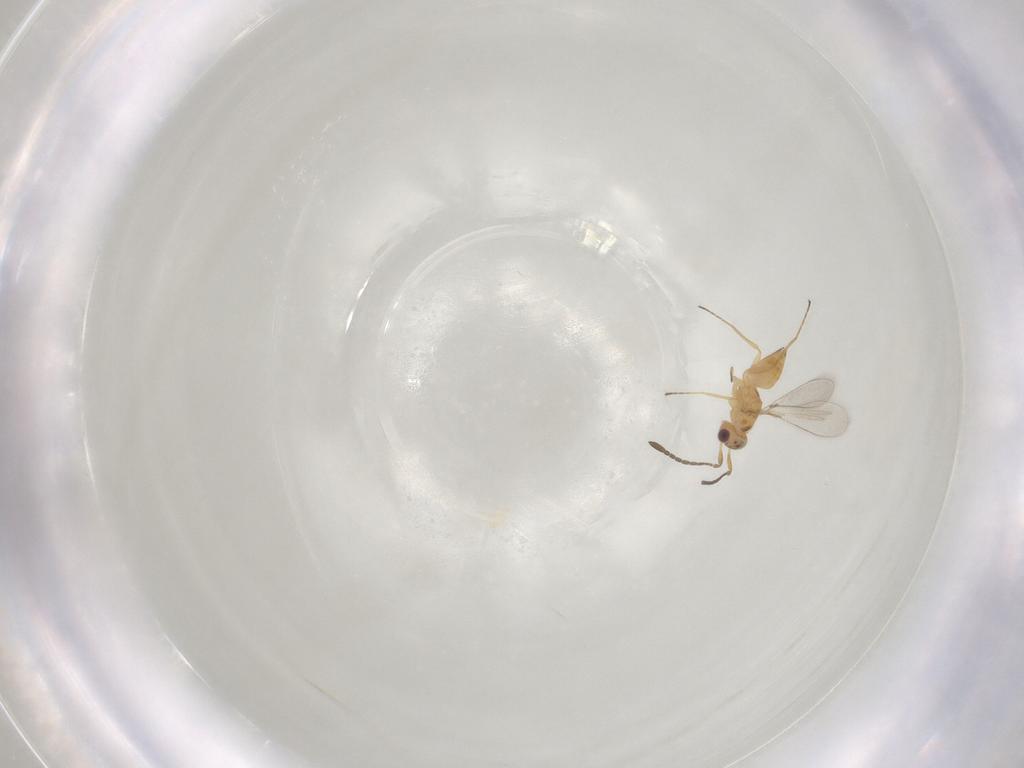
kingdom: Animalia
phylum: Arthropoda
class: Insecta
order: Hymenoptera
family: Mymaridae
